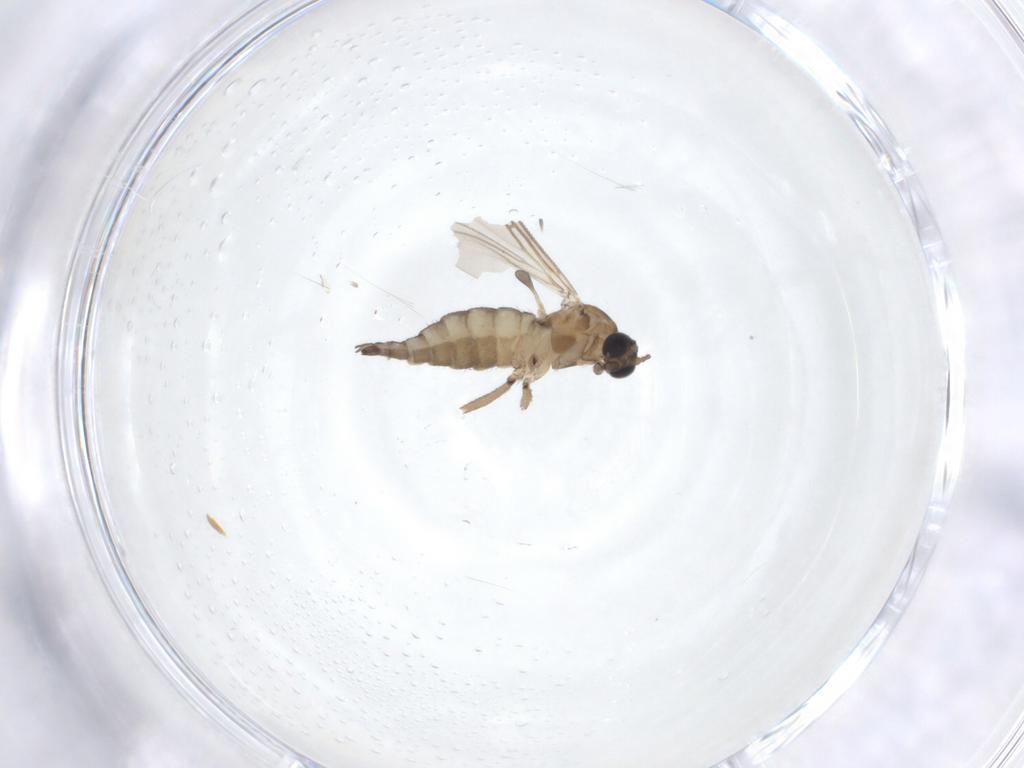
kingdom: Animalia
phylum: Arthropoda
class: Insecta
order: Diptera
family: Sciaridae
